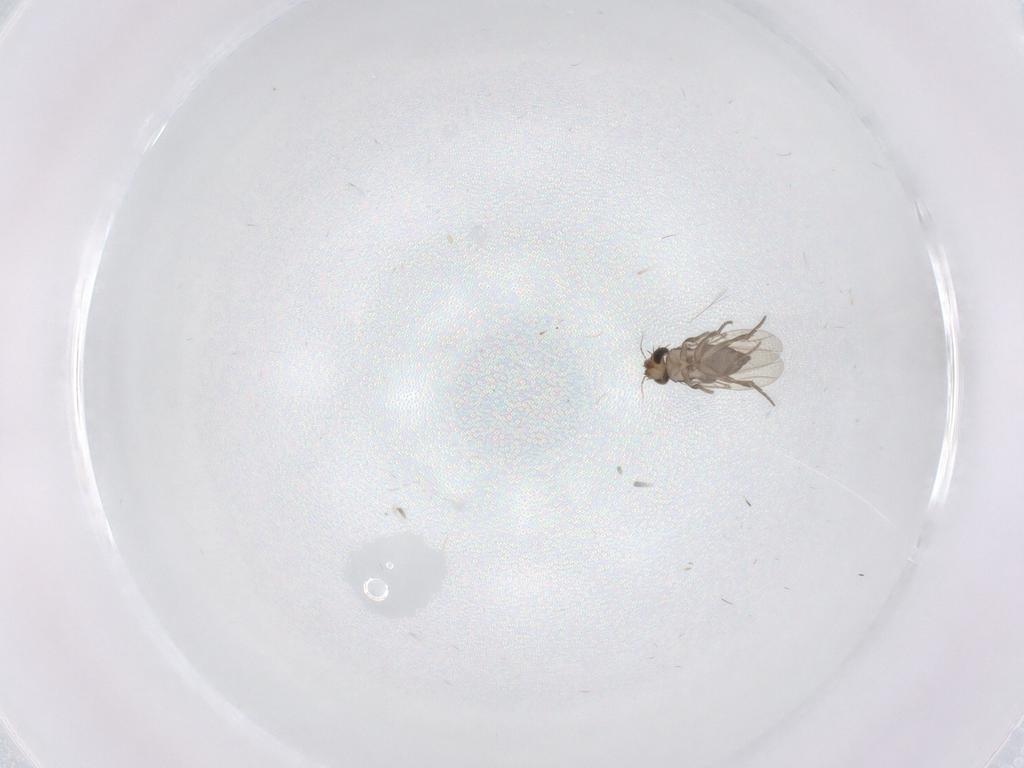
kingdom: Animalia
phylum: Arthropoda
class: Insecta
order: Diptera
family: Phoridae
